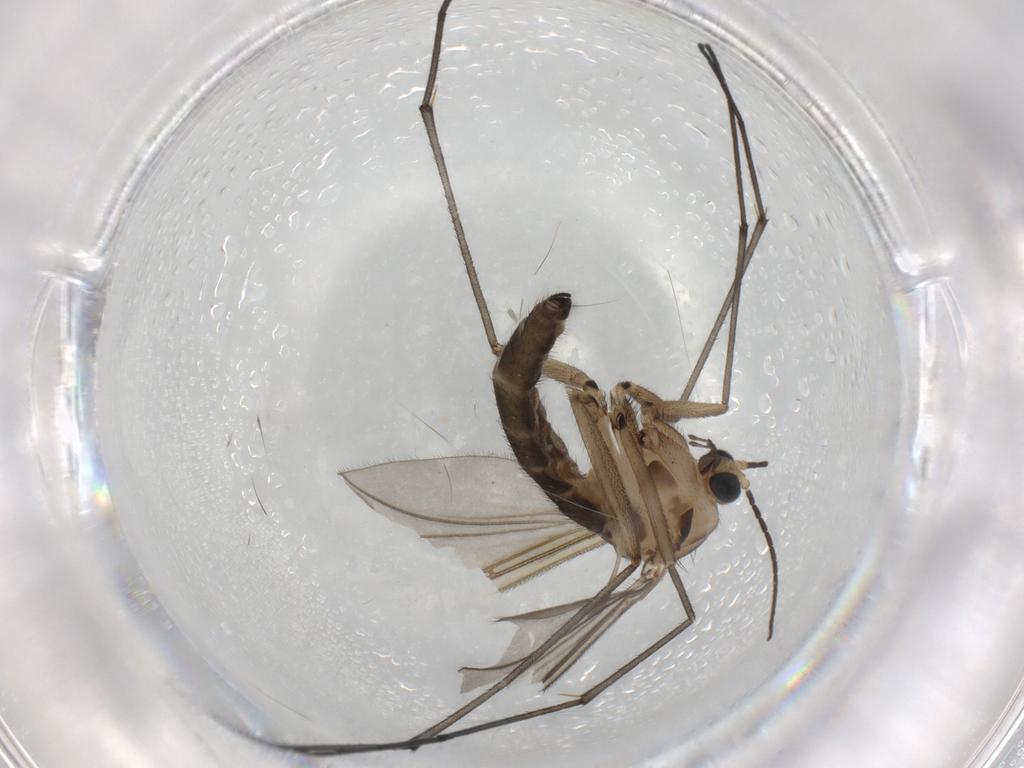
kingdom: Animalia
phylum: Arthropoda
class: Insecta
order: Diptera
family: Sciaridae
